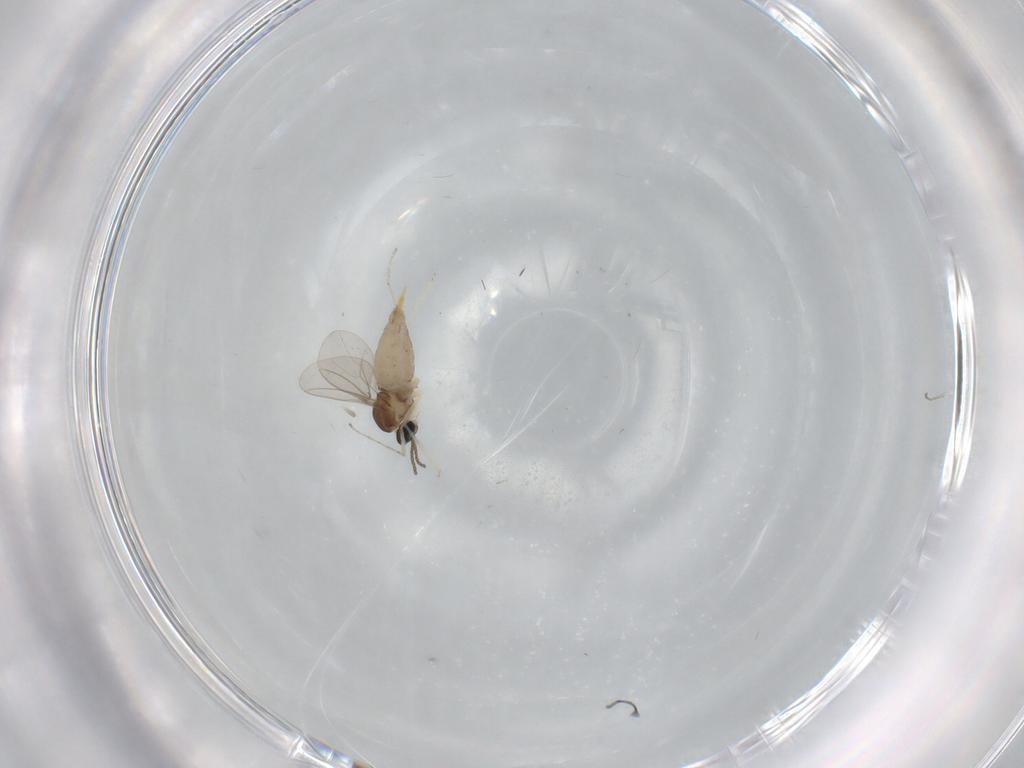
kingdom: Animalia
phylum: Arthropoda
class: Insecta
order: Diptera
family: Cecidomyiidae
